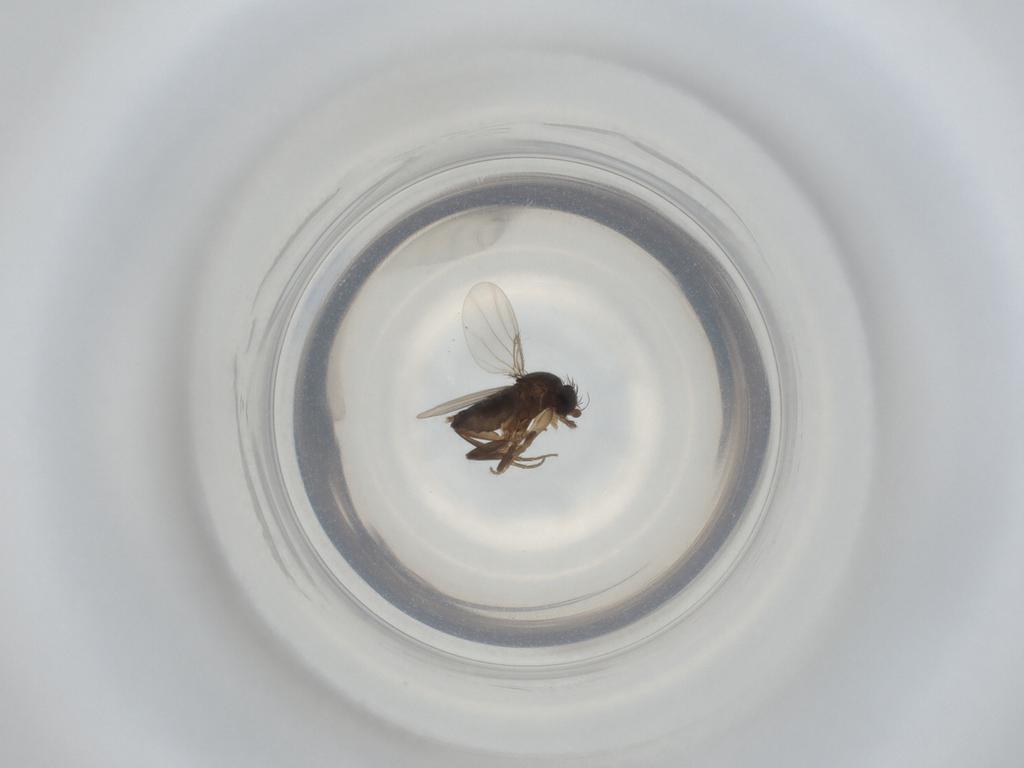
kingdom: Animalia
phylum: Arthropoda
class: Insecta
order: Diptera
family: Phoridae
